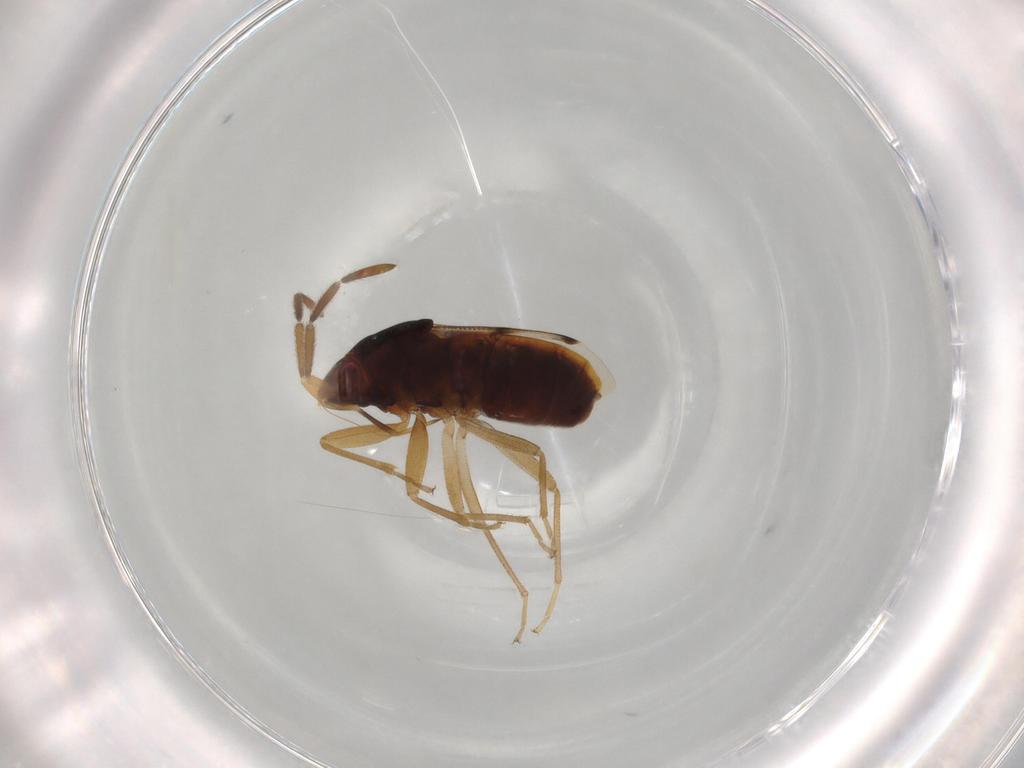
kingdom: Animalia
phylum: Arthropoda
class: Insecta
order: Hemiptera
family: Rhyparochromidae
